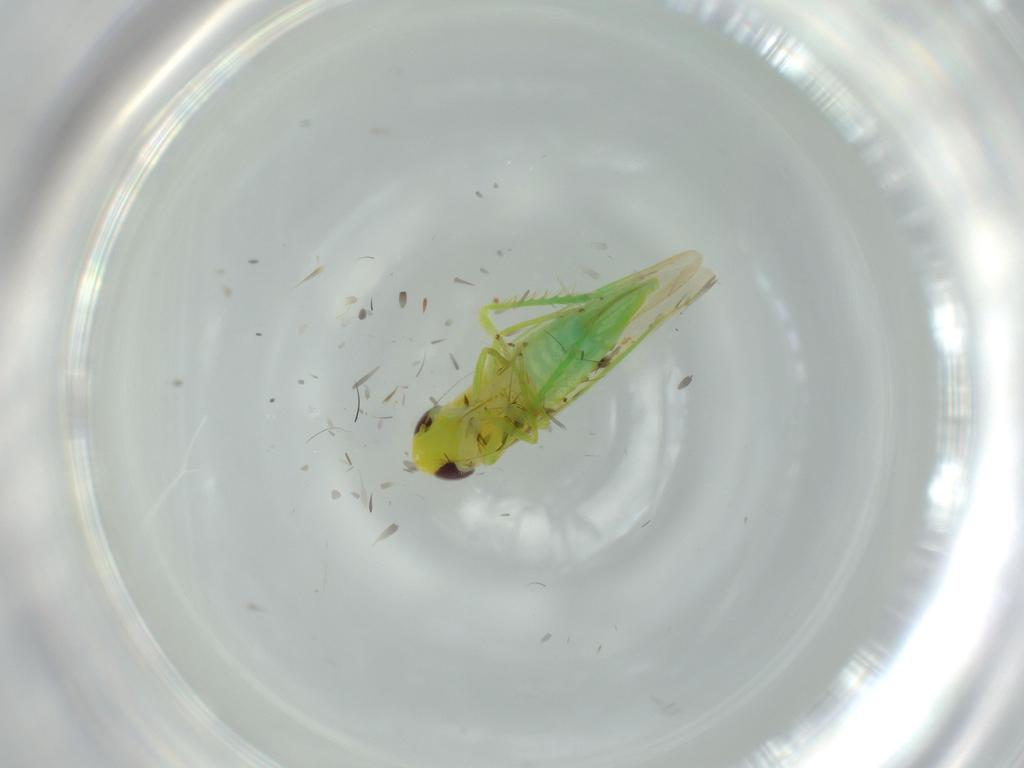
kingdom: Animalia
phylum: Arthropoda
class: Insecta
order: Hemiptera
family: Cicadellidae
